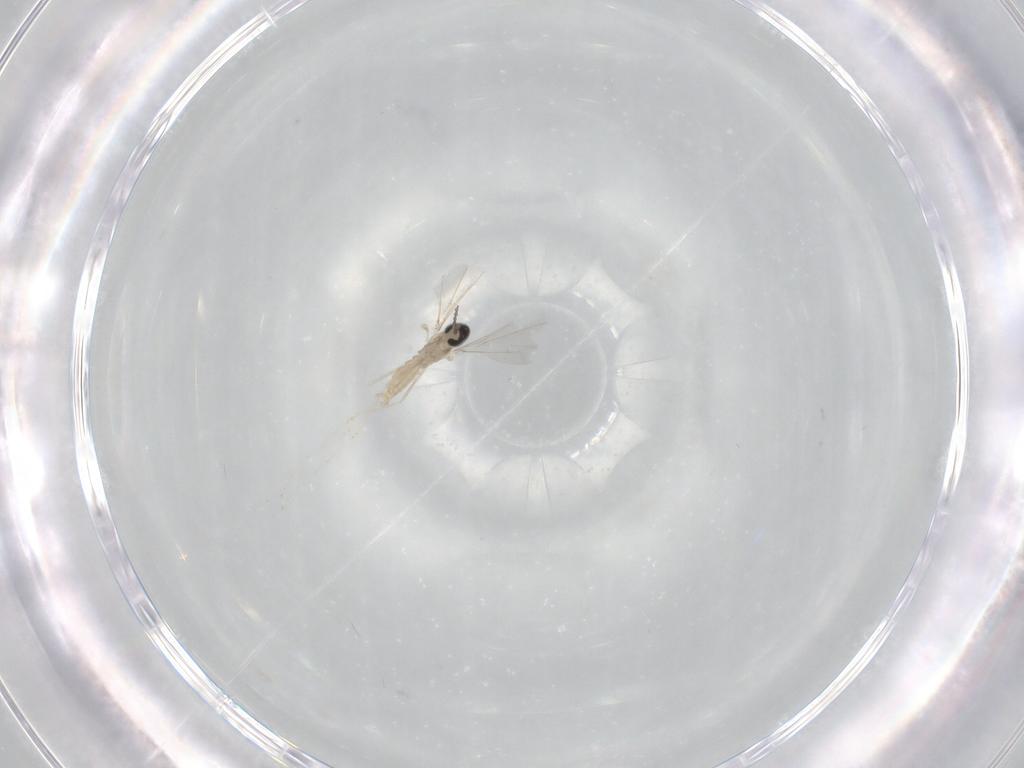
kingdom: Animalia
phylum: Arthropoda
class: Insecta
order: Diptera
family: Cecidomyiidae
